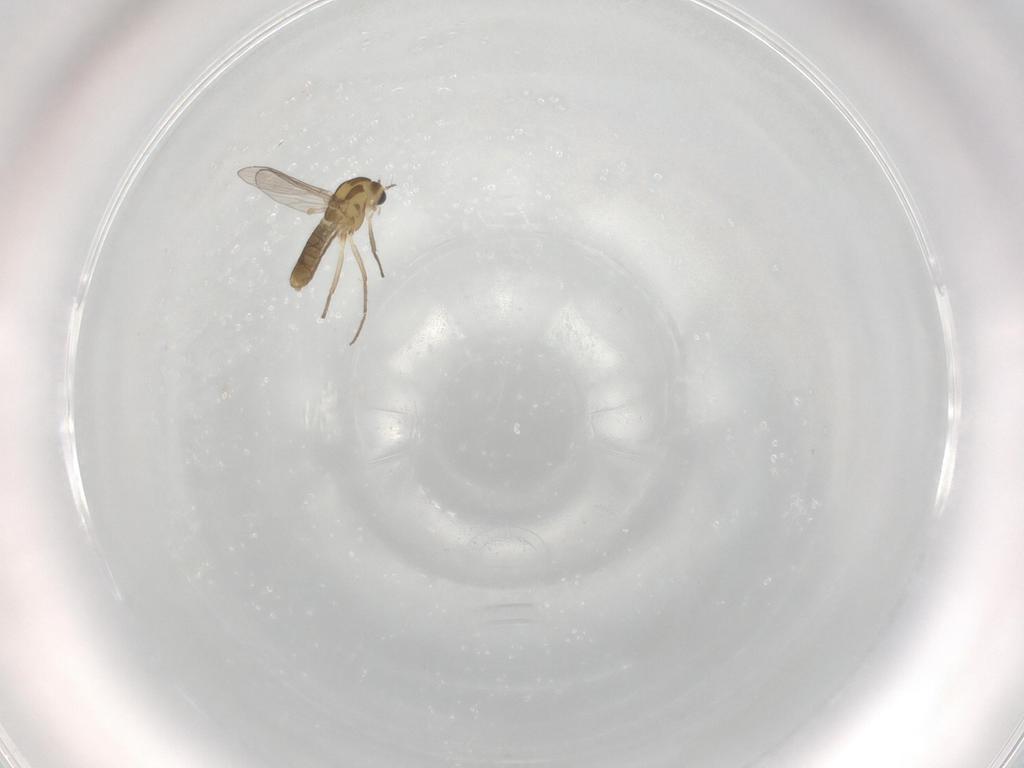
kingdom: Animalia
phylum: Arthropoda
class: Insecta
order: Diptera
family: Chironomidae
